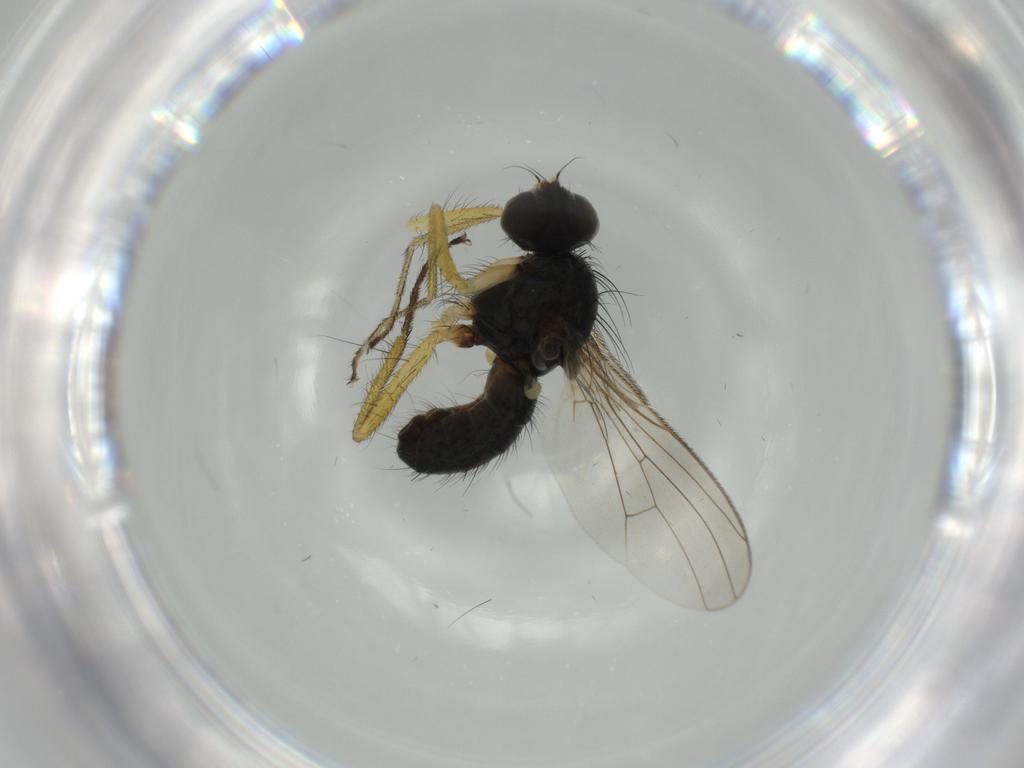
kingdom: Animalia
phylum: Arthropoda
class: Insecta
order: Diptera
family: Muscidae
